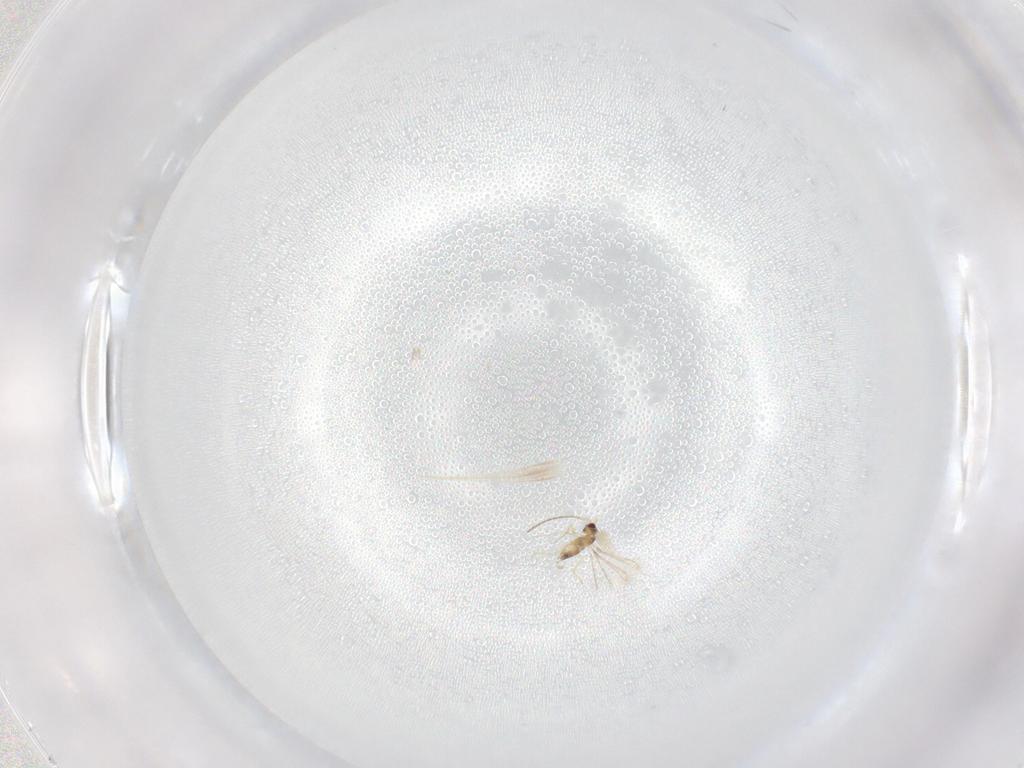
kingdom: Animalia
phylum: Arthropoda
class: Insecta
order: Hymenoptera
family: Mymaridae
